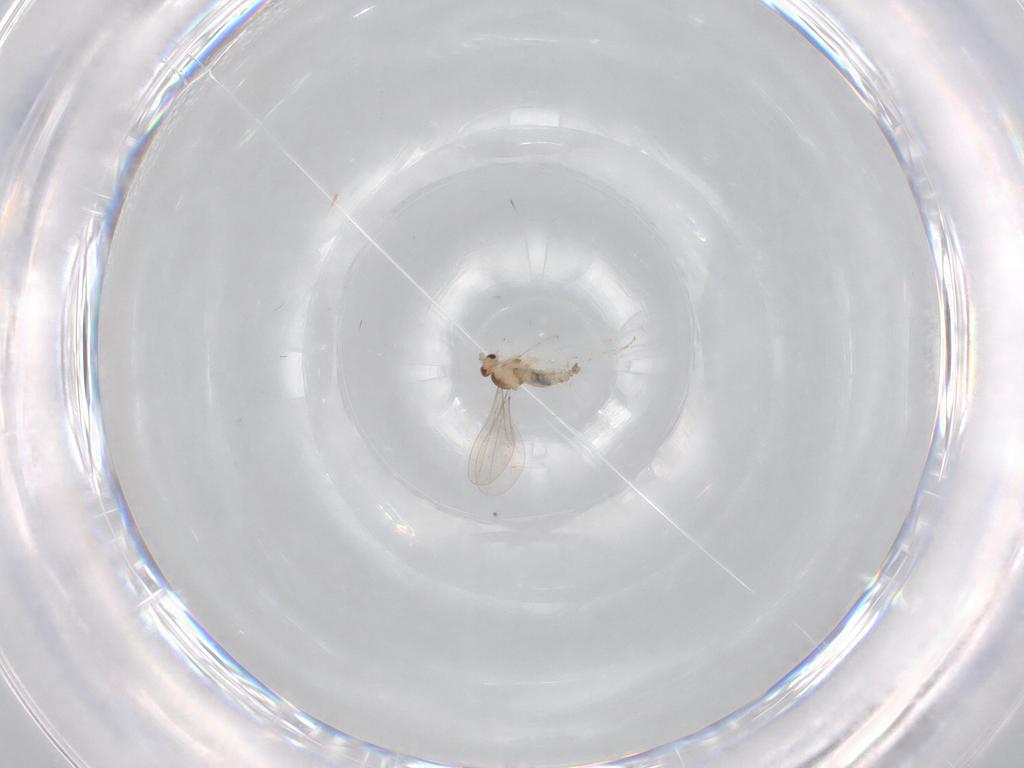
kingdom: Animalia
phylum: Arthropoda
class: Insecta
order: Diptera
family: Cecidomyiidae
